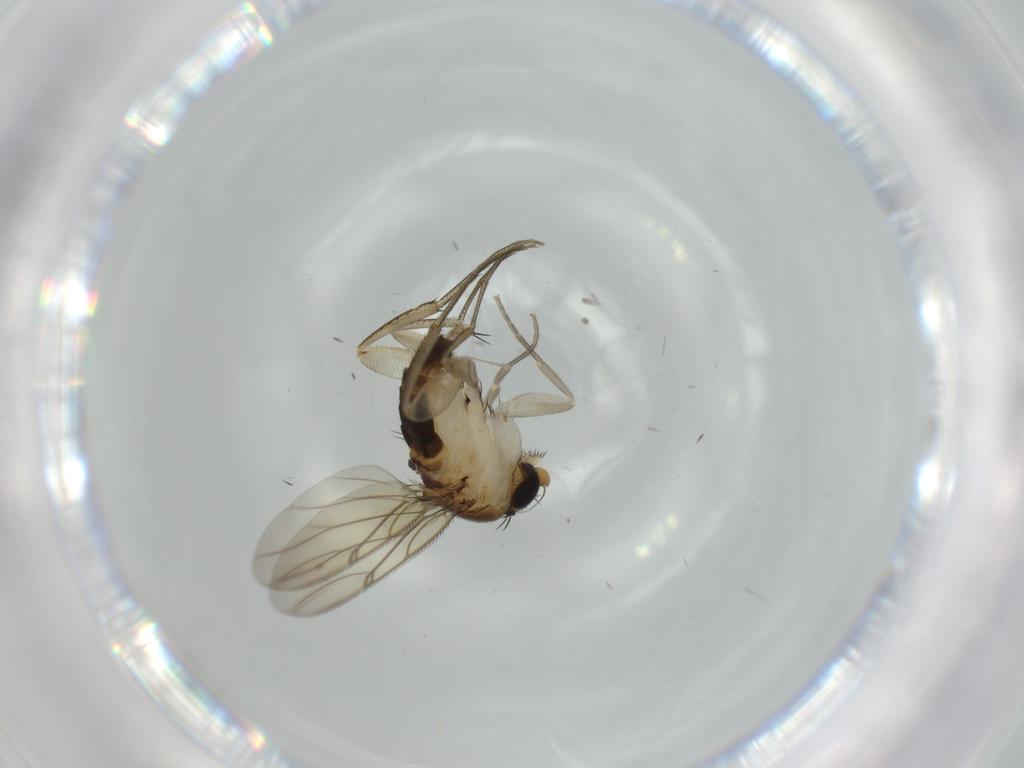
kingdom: Animalia
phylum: Arthropoda
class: Insecta
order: Diptera
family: Phoridae
